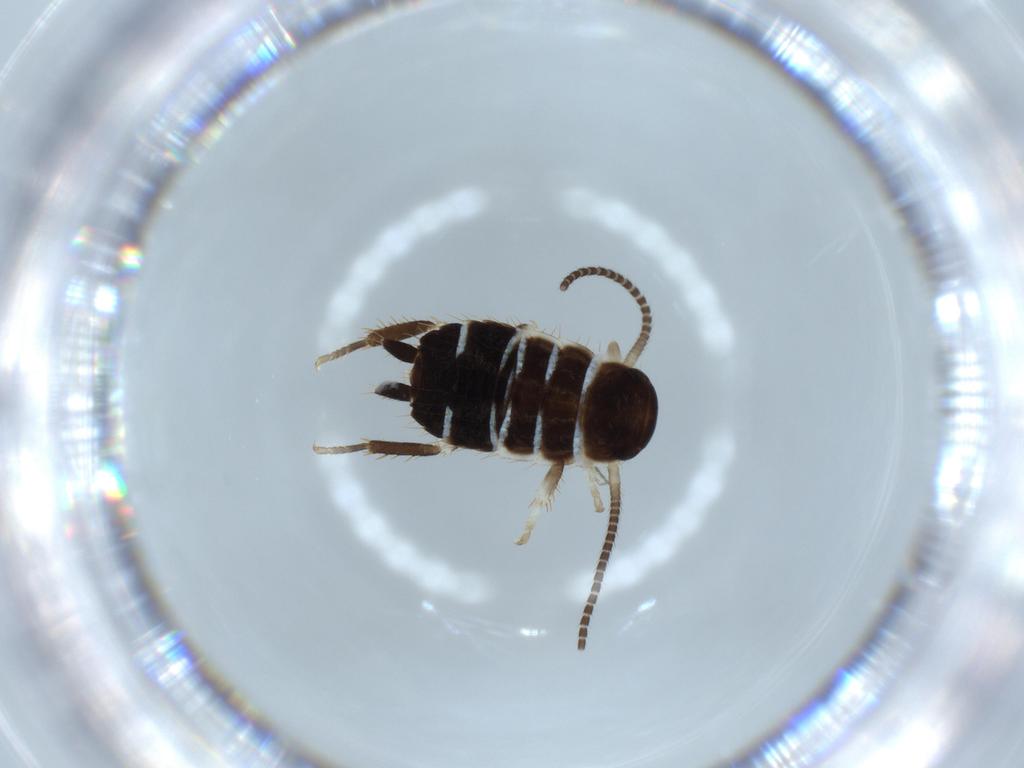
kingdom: Animalia
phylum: Arthropoda
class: Insecta
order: Blattodea
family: Ectobiidae
